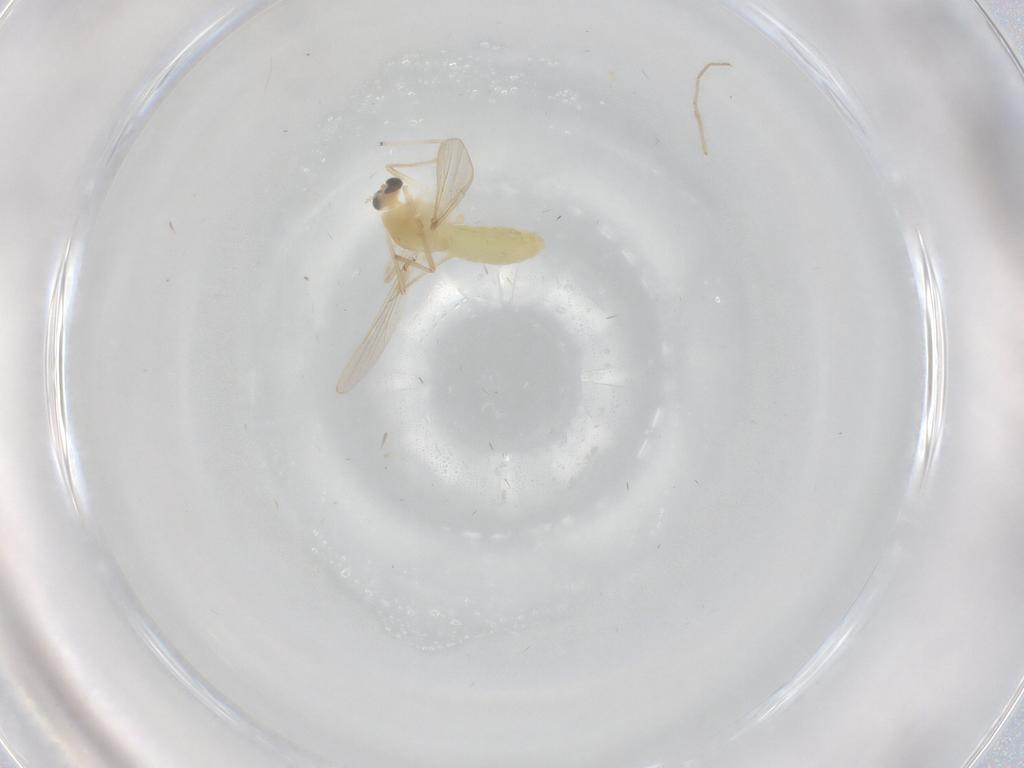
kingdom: Animalia
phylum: Arthropoda
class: Insecta
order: Diptera
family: Chironomidae
